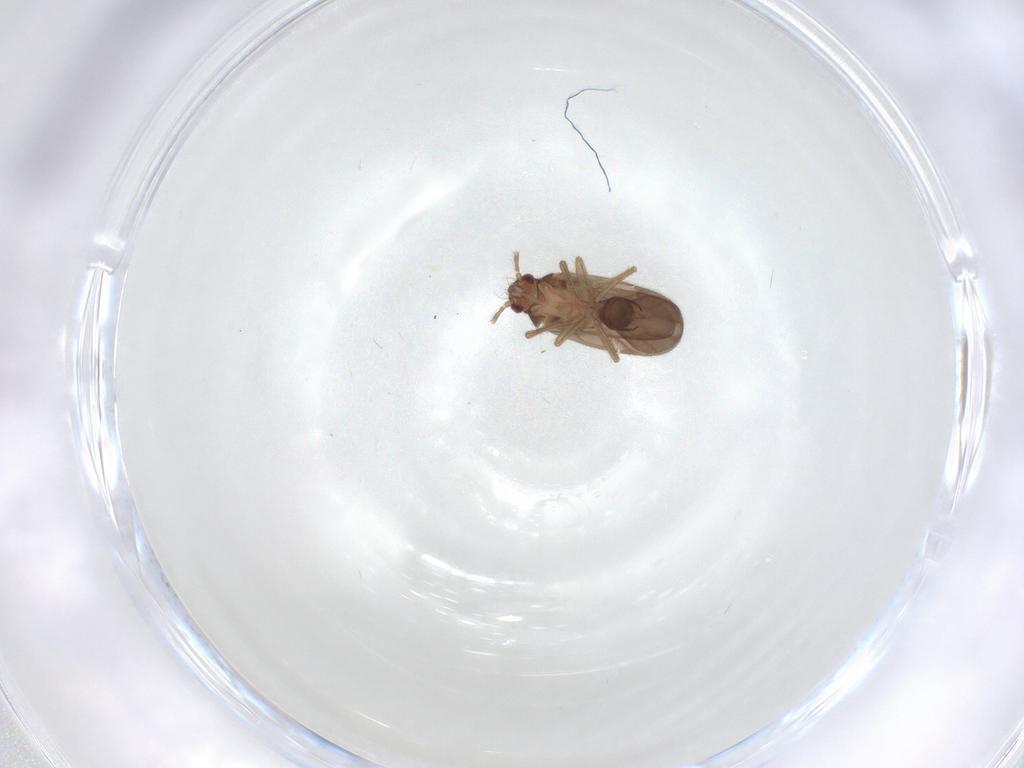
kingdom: Animalia
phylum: Arthropoda
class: Insecta
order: Hemiptera
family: Ceratocombidae
